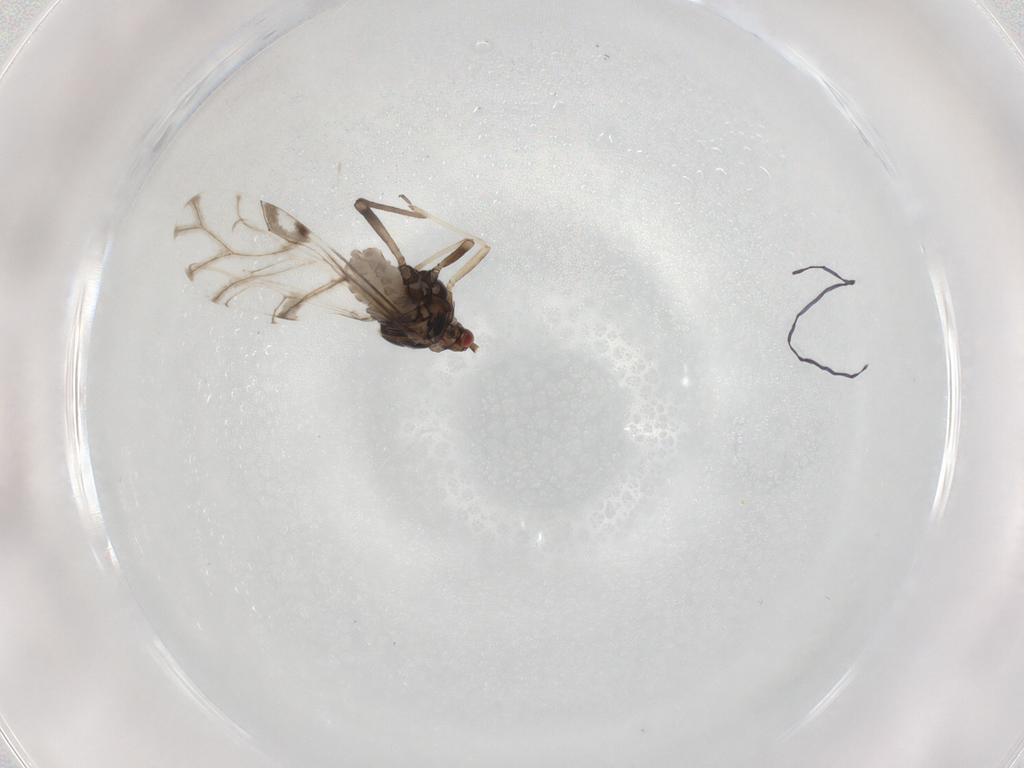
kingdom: Animalia
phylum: Arthropoda
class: Insecta
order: Hemiptera
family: Aphididae
